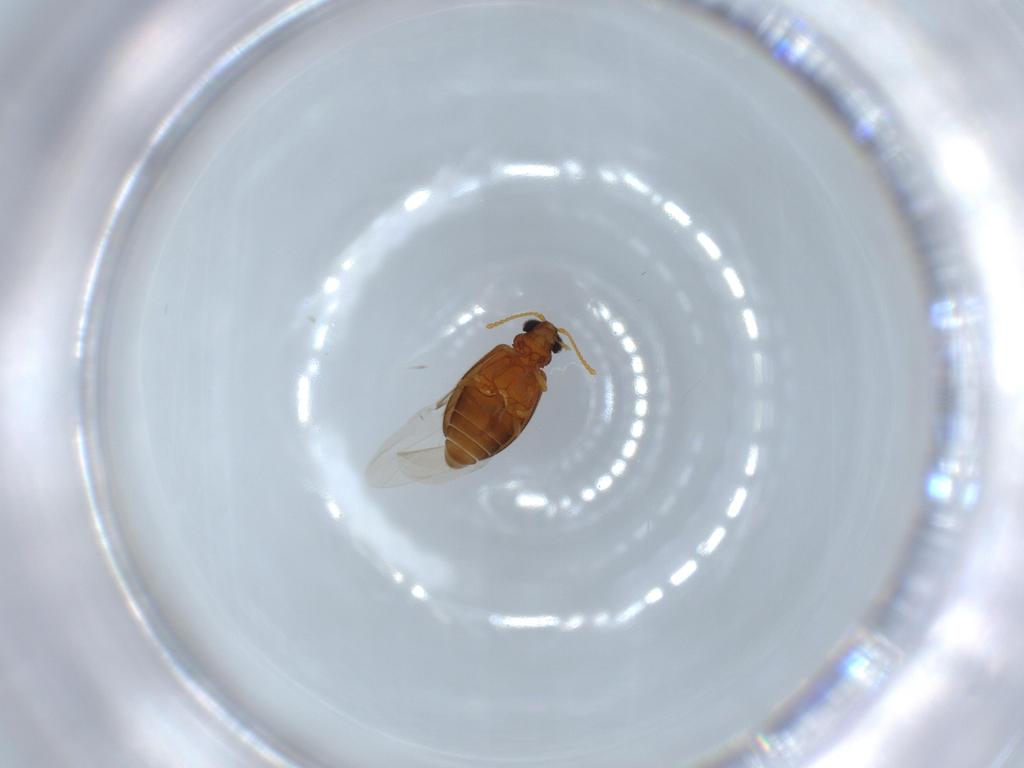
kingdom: Animalia
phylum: Arthropoda
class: Insecta
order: Coleoptera
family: Aderidae
